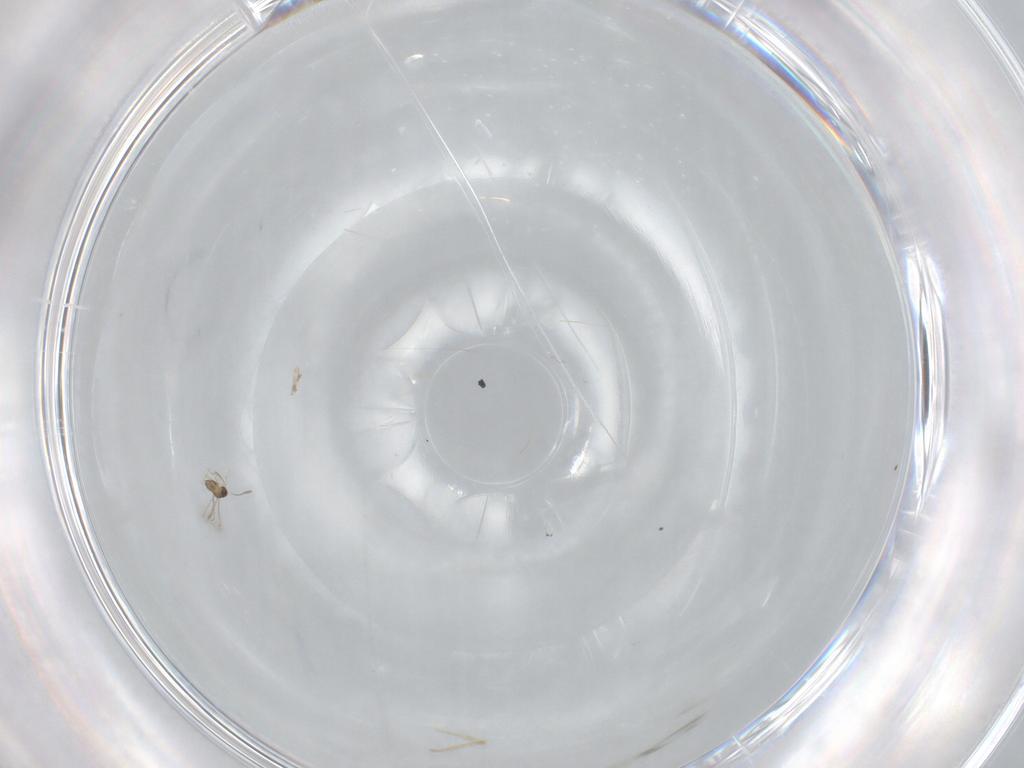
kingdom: Animalia
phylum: Arthropoda
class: Insecta
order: Hymenoptera
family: Scelionidae
